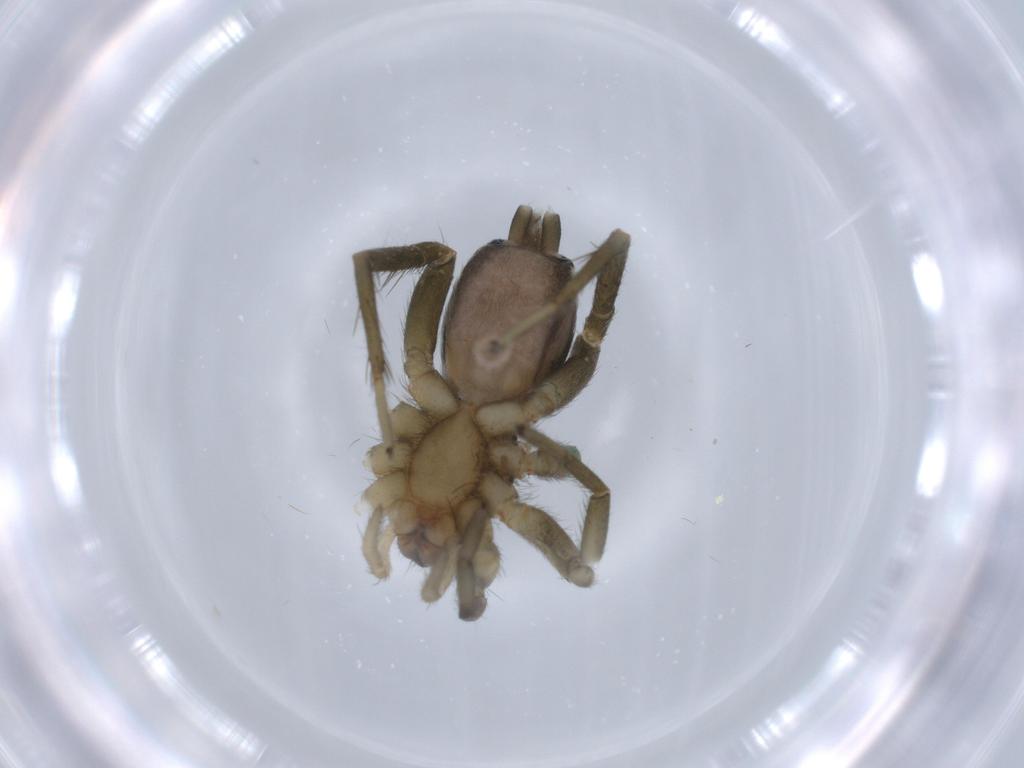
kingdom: Animalia
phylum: Arthropoda
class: Arachnida
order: Araneae
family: Gnaphosidae
